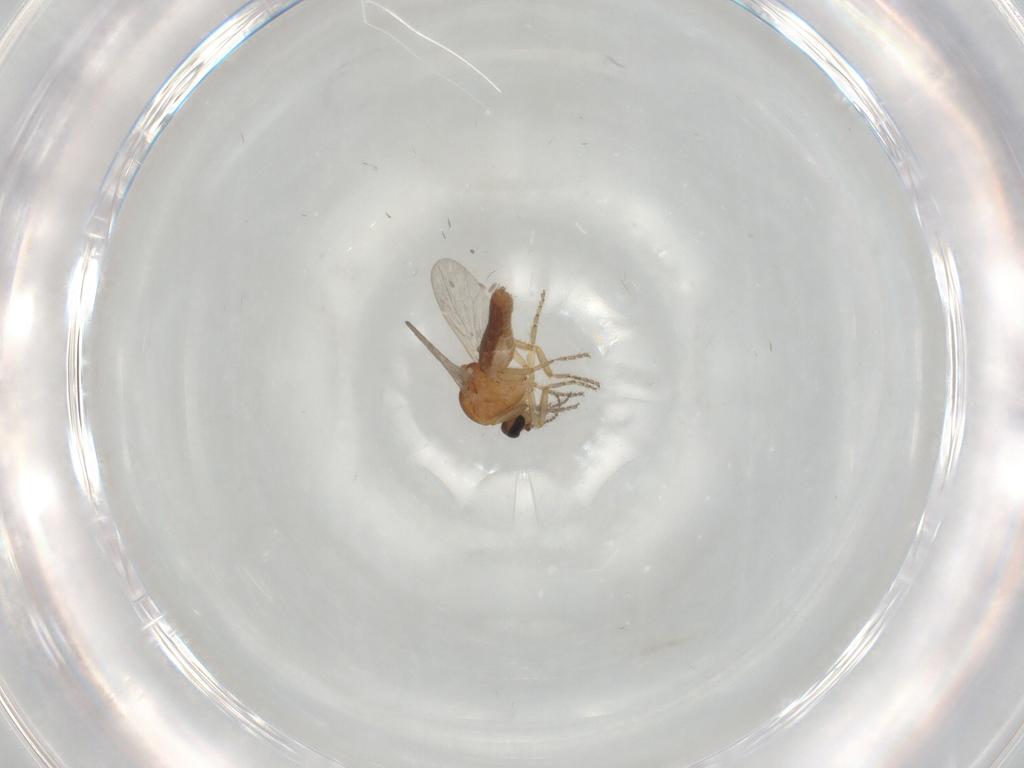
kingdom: Animalia
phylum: Arthropoda
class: Insecta
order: Diptera
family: Ceratopogonidae
